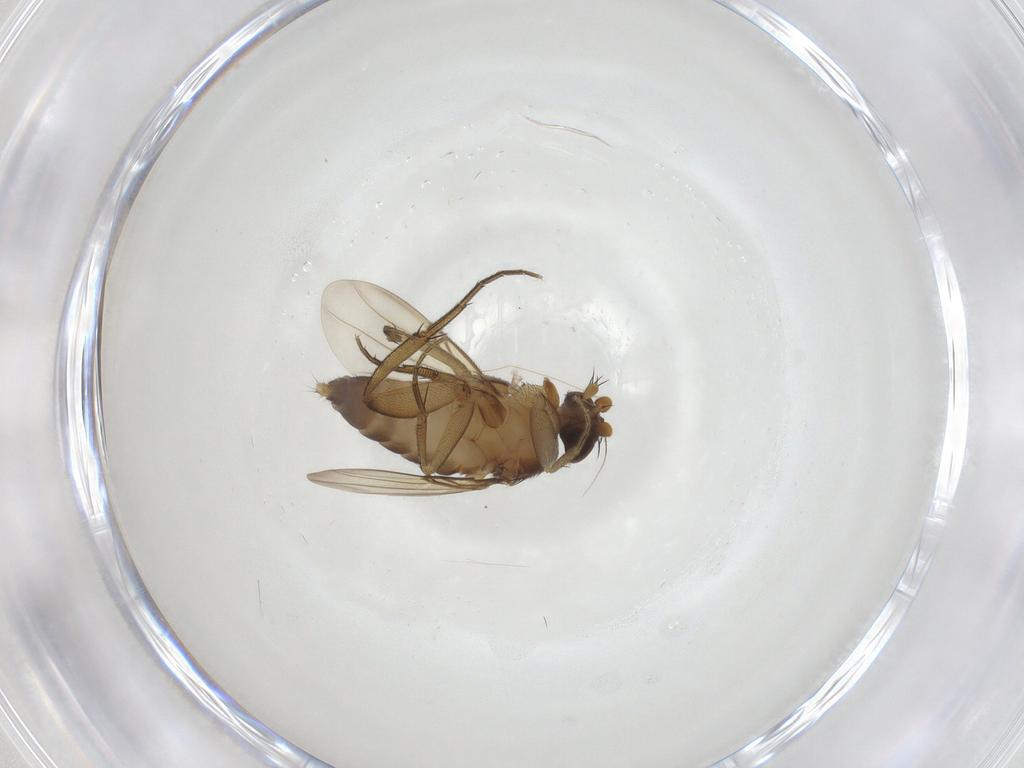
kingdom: Animalia
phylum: Arthropoda
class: Insecta
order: Diptera
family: Phoridae
